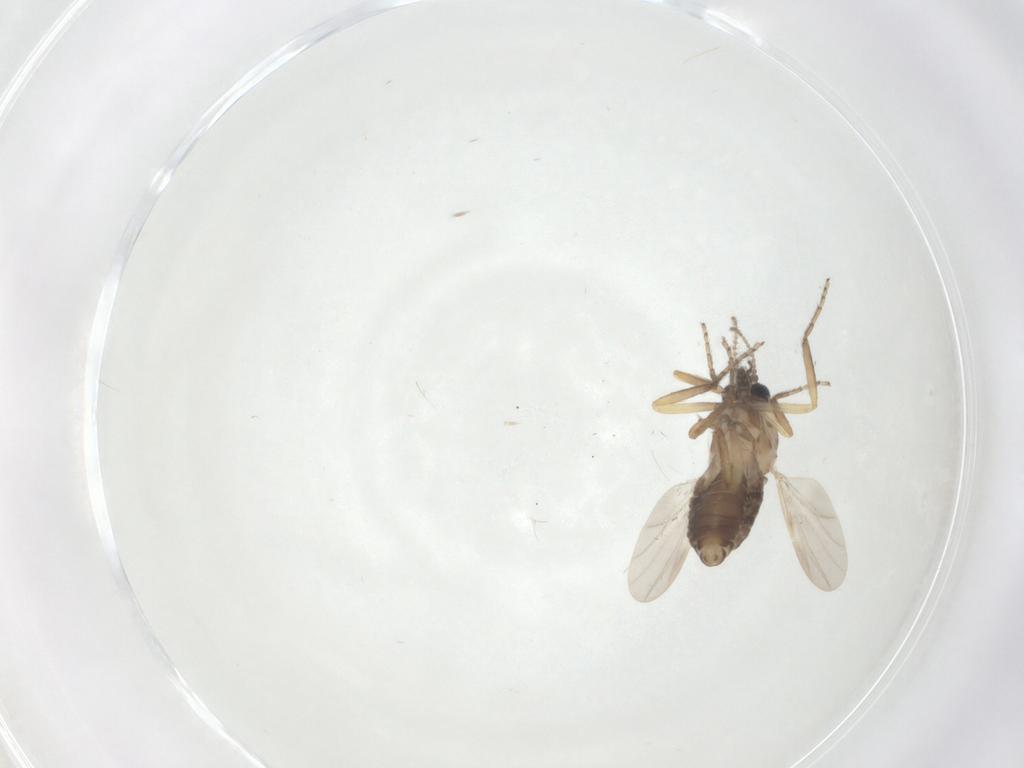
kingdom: Animalia
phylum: Arthropoda
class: Insecta
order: Diptera
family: Ceratopogonidae
